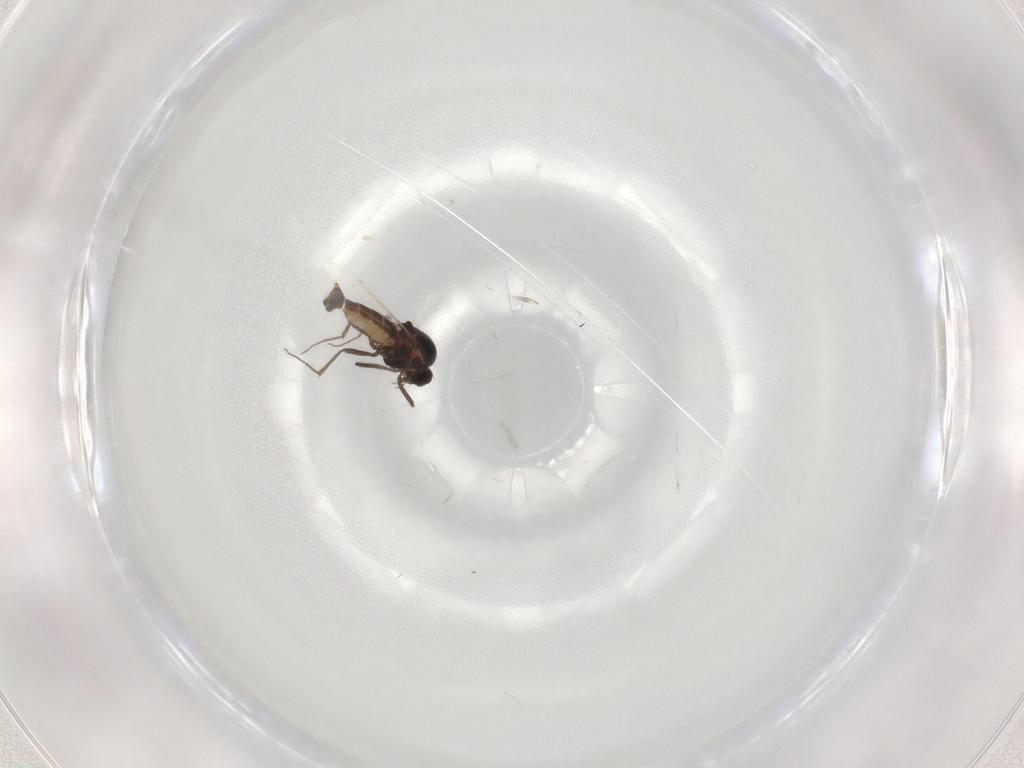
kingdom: Animalia
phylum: Arthropoda
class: Insecta
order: Diptera
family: Ceratopogonidae
